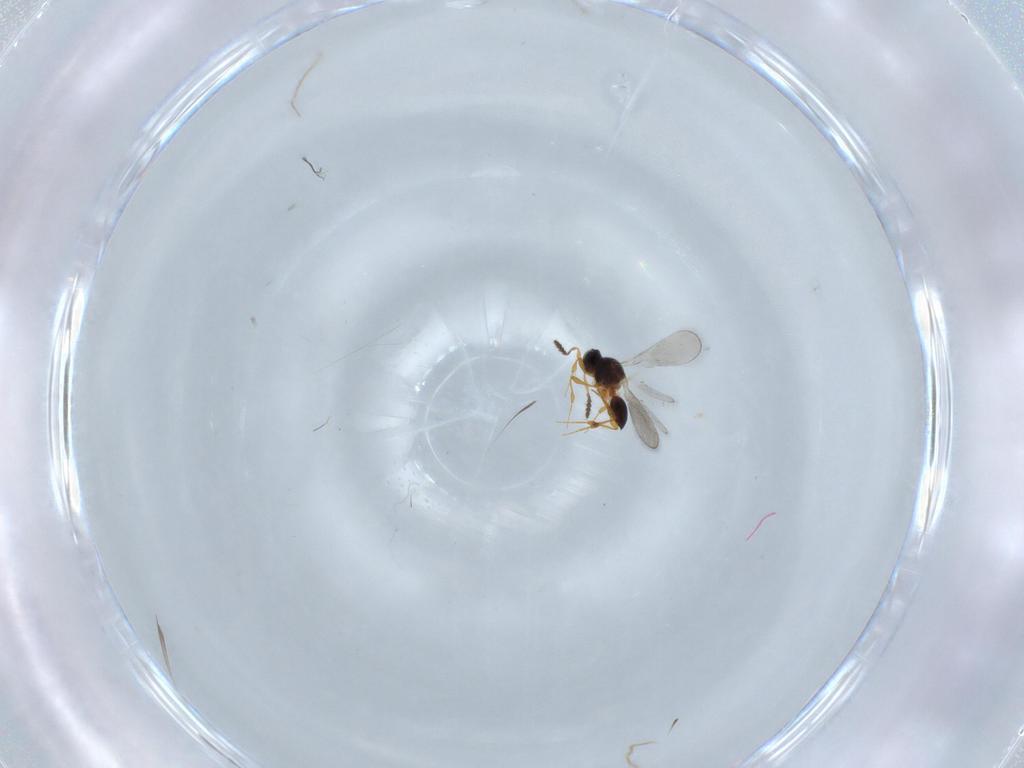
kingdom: Animalia
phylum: Arthropoda
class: Insecta
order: Hymenoptera
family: Platygastridae
